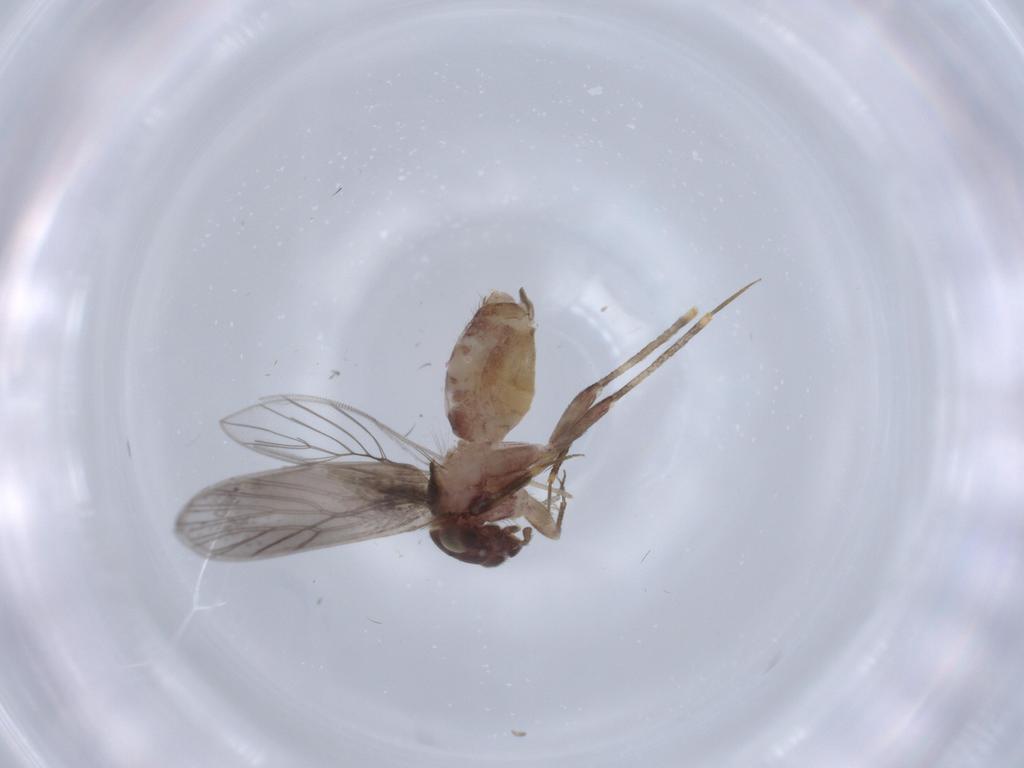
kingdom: Animalia
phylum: Arthropoda
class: Insecta
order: Psocodea
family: Lepidopsocidae
